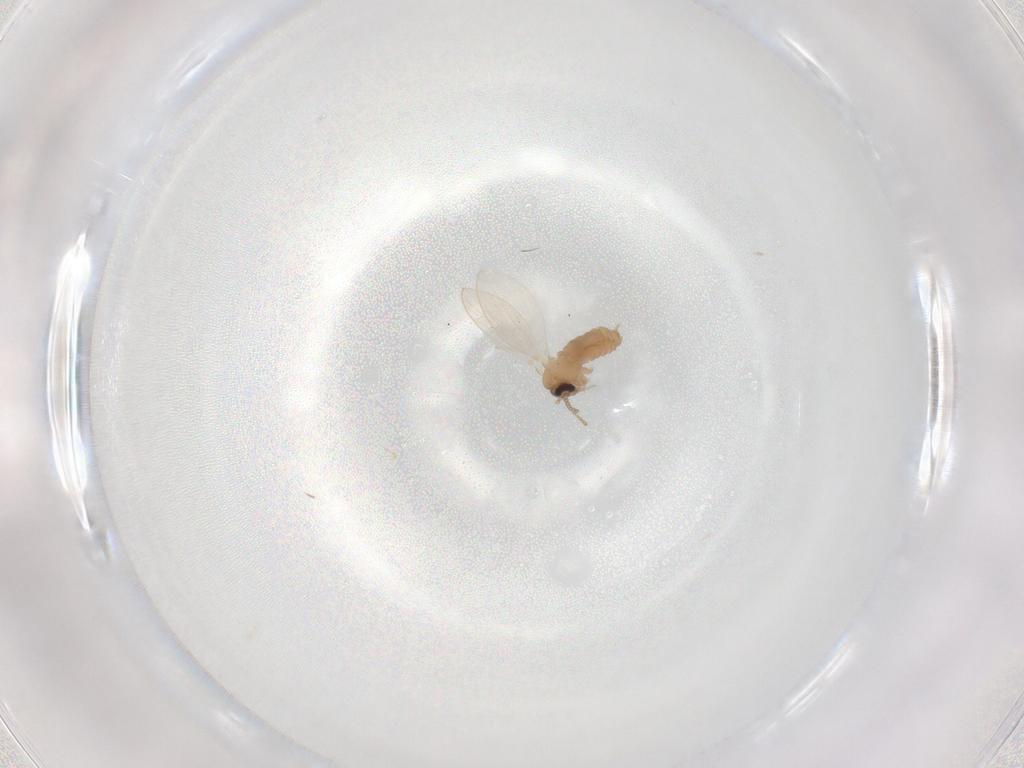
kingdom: Animalia
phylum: Arthropoda
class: Insecta
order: Diptera
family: Psychodidae
